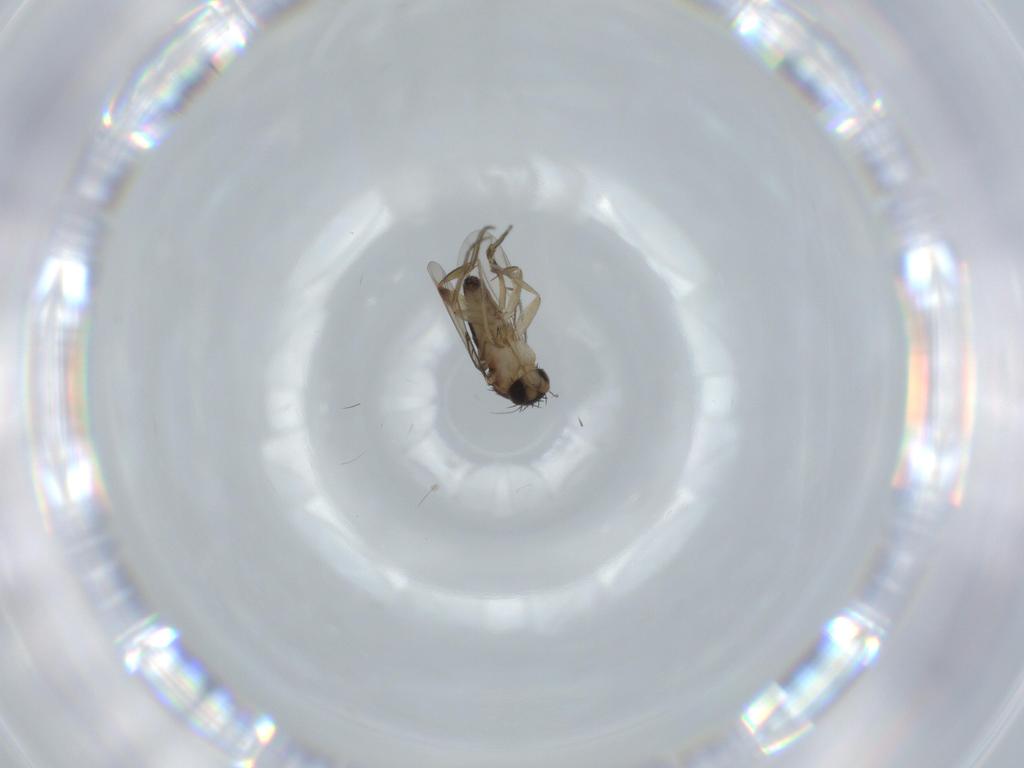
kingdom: Animalia
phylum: Arthropoda
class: Insecta
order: Diptera
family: Phoridae
